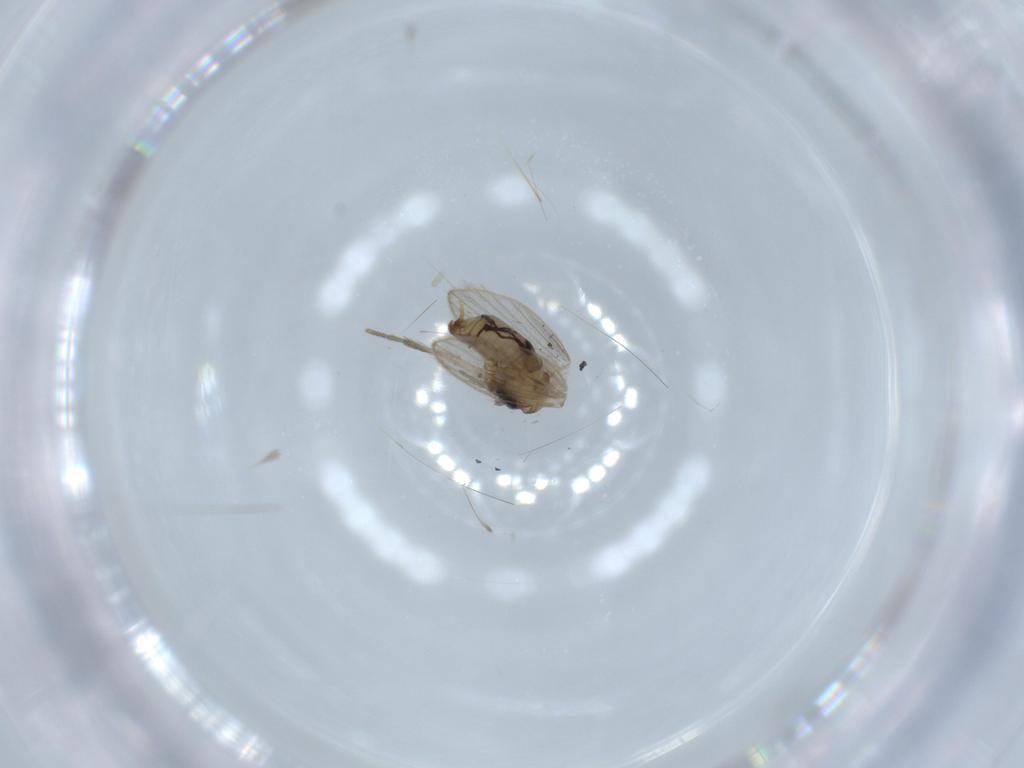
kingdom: Animalia
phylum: Arthropoda
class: Insecta
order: Diptera
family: Psychodidae
